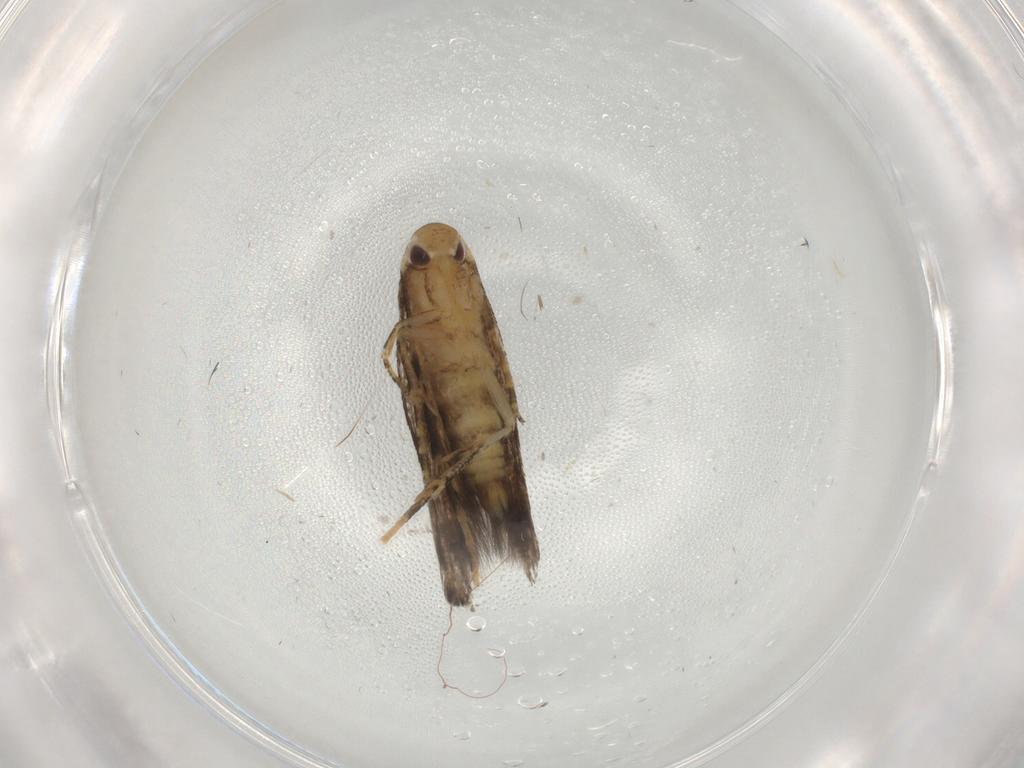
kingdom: Animalia
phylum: Arthropoda
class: Insecta
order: Lepidoptera
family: Momphidae
